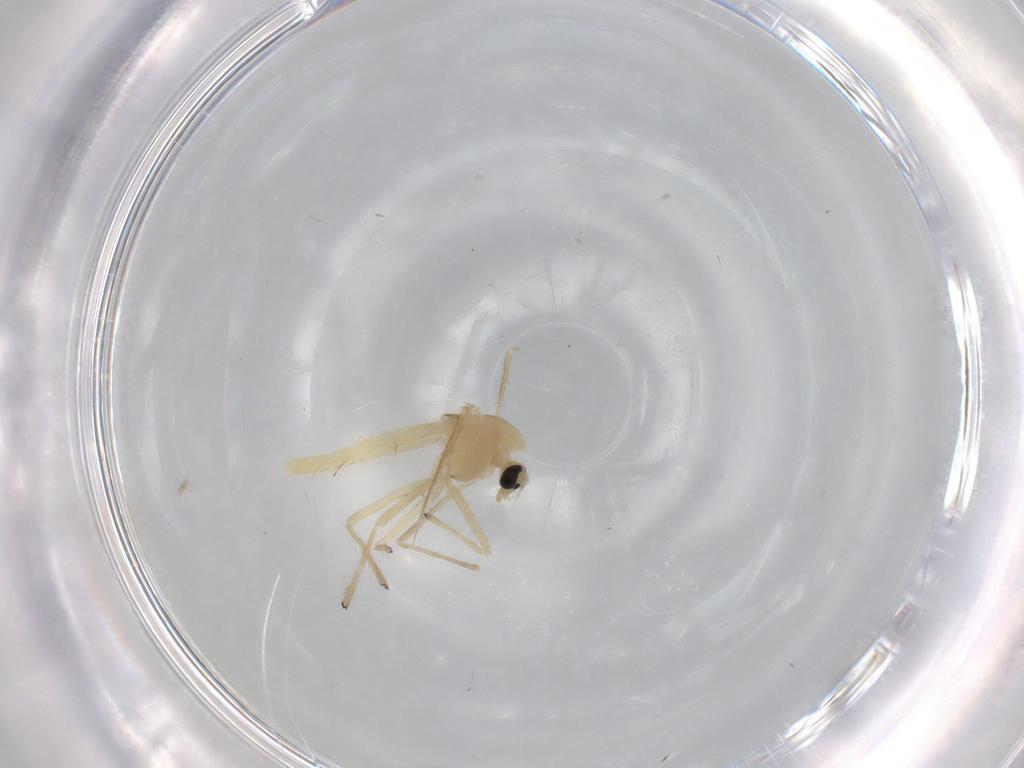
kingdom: Animalia
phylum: Arthropoda
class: Insecta
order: Diptera
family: Chironomidae
